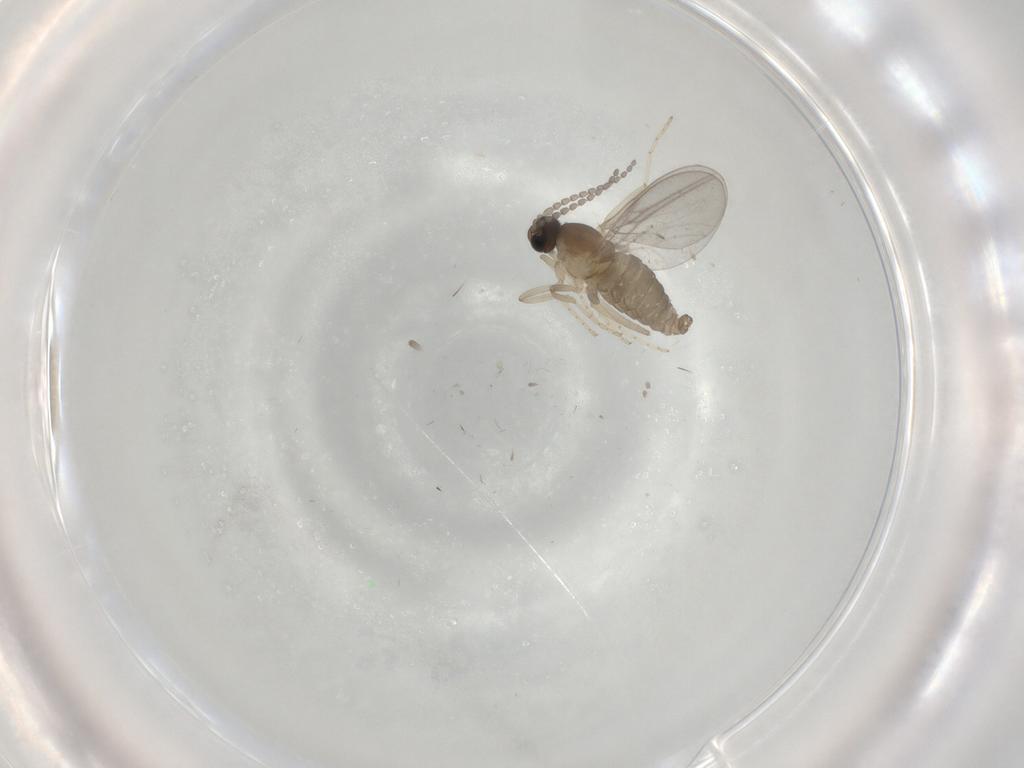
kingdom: Animalia
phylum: Arthropoda
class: Insecta
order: Diptera
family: Cecidomyiidae
